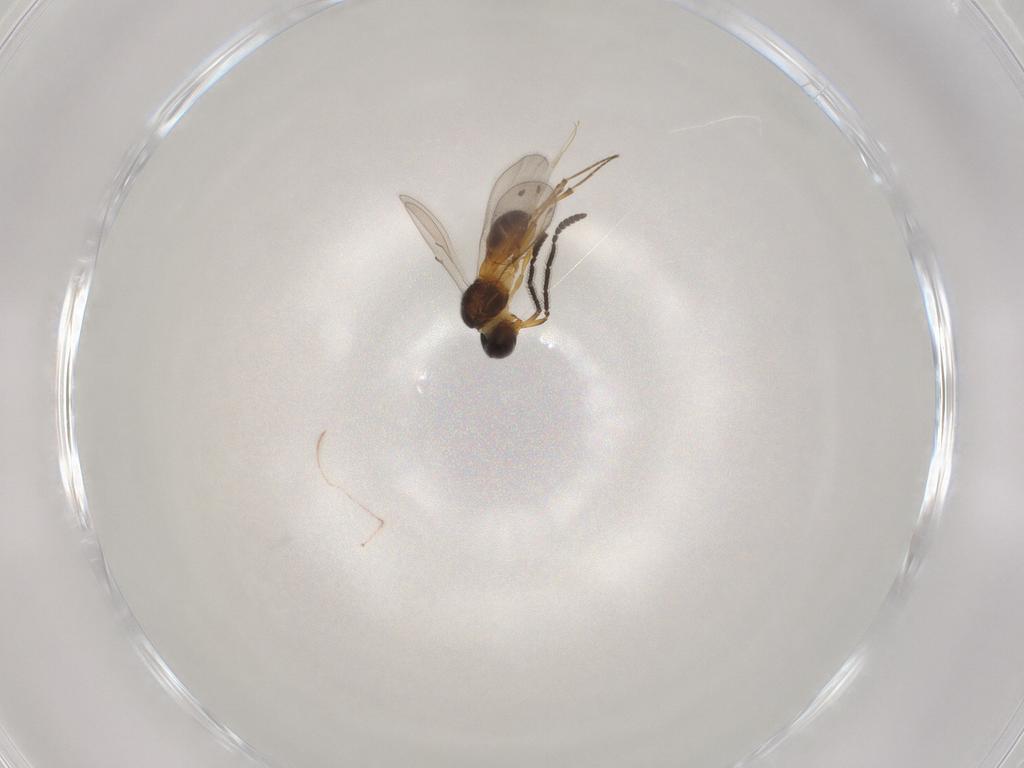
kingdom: Animalia
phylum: Arthropoda
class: Insecta
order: Hymenoptera
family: Scelionidae
